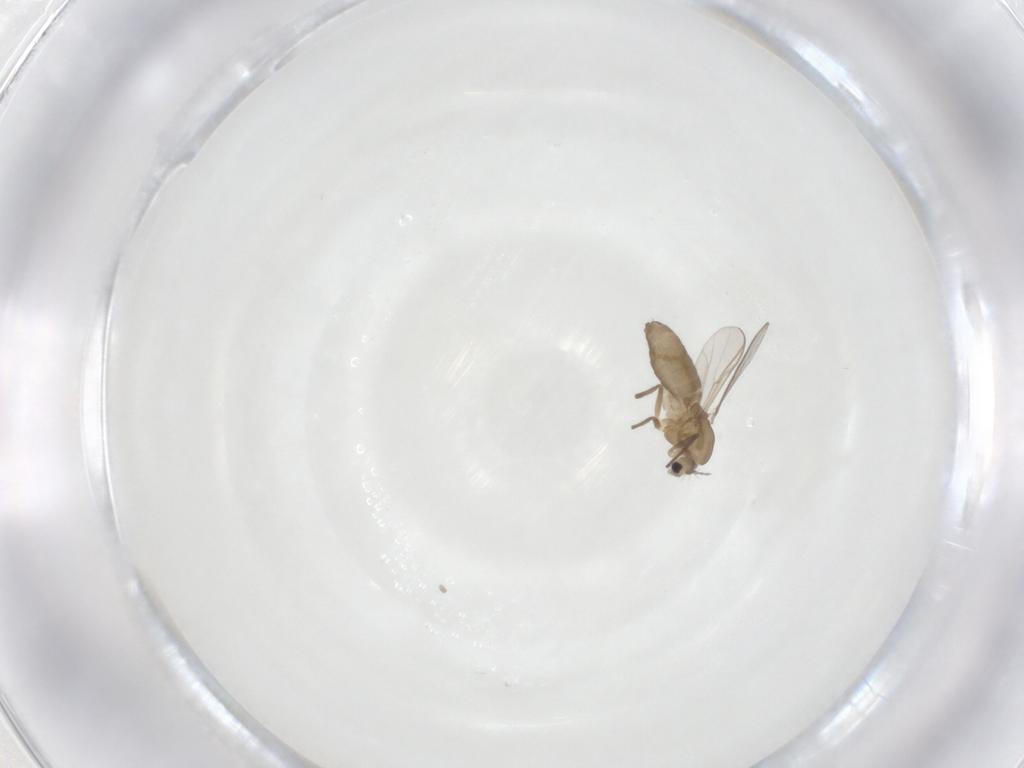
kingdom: Animalia
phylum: Arthropoda
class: Insecta
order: Diptera
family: Chironomidae
